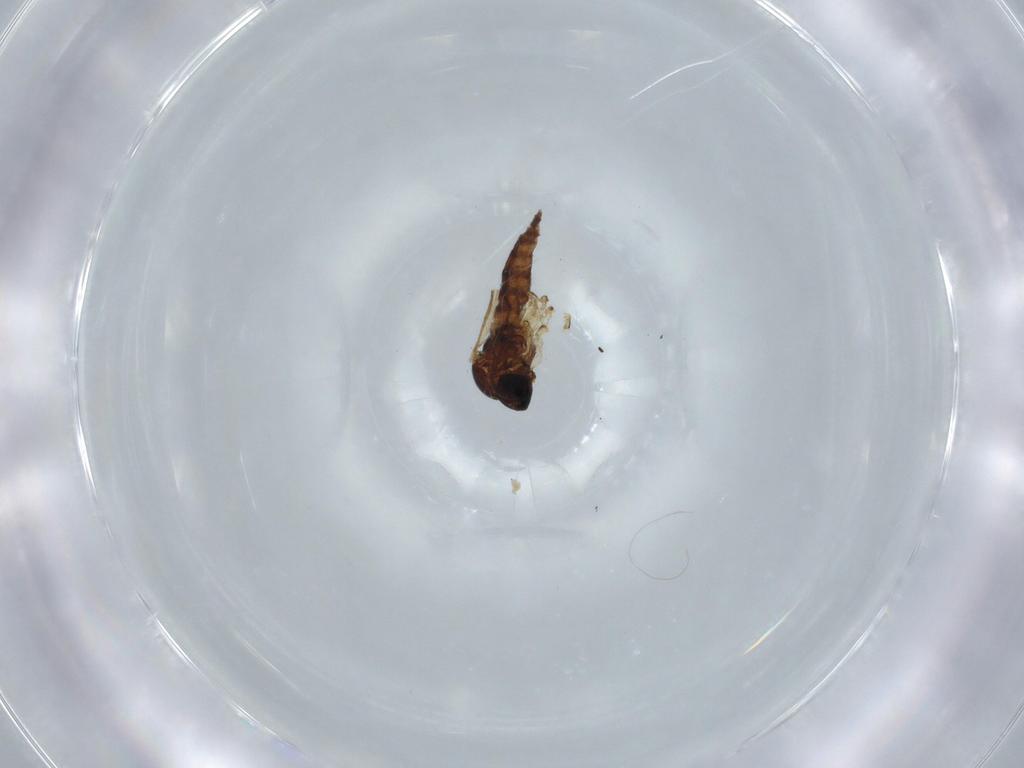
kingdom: Animalia
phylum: Arthropoda
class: Insecta
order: Diptera
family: Sciaridae
